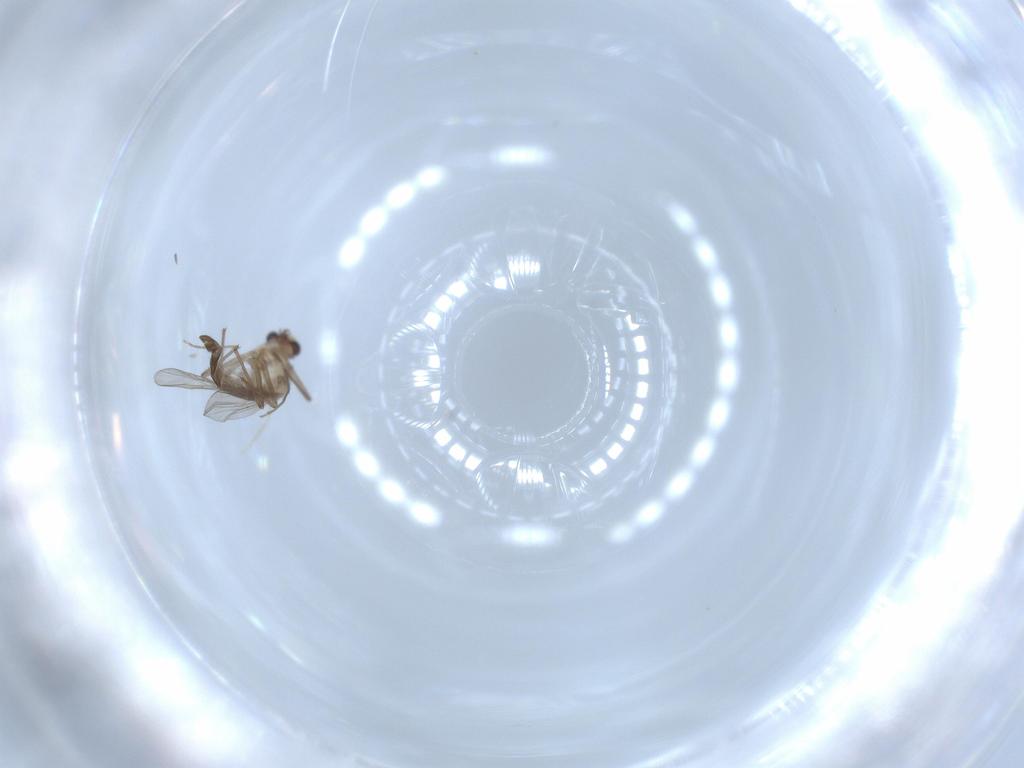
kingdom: Animalia
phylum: Arthropoda
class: Insecta
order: Diptera
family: Chironomidae
